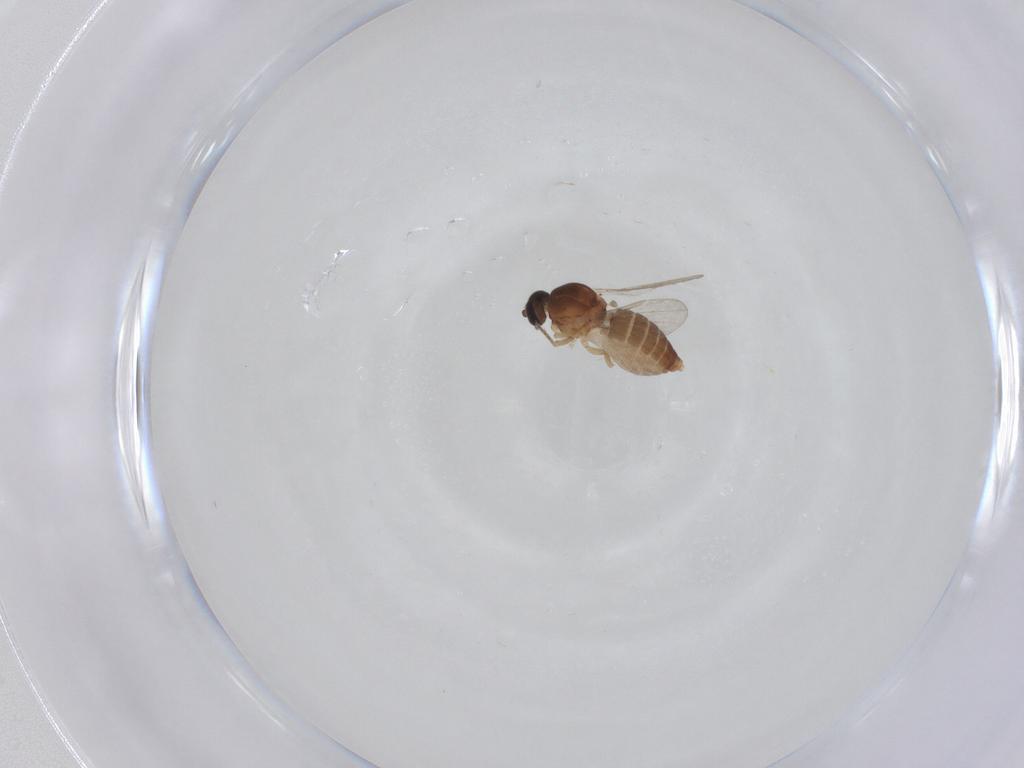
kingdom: Animalia
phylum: Arthropoda
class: Insecta
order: Diptera
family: Ceratopogonidae
